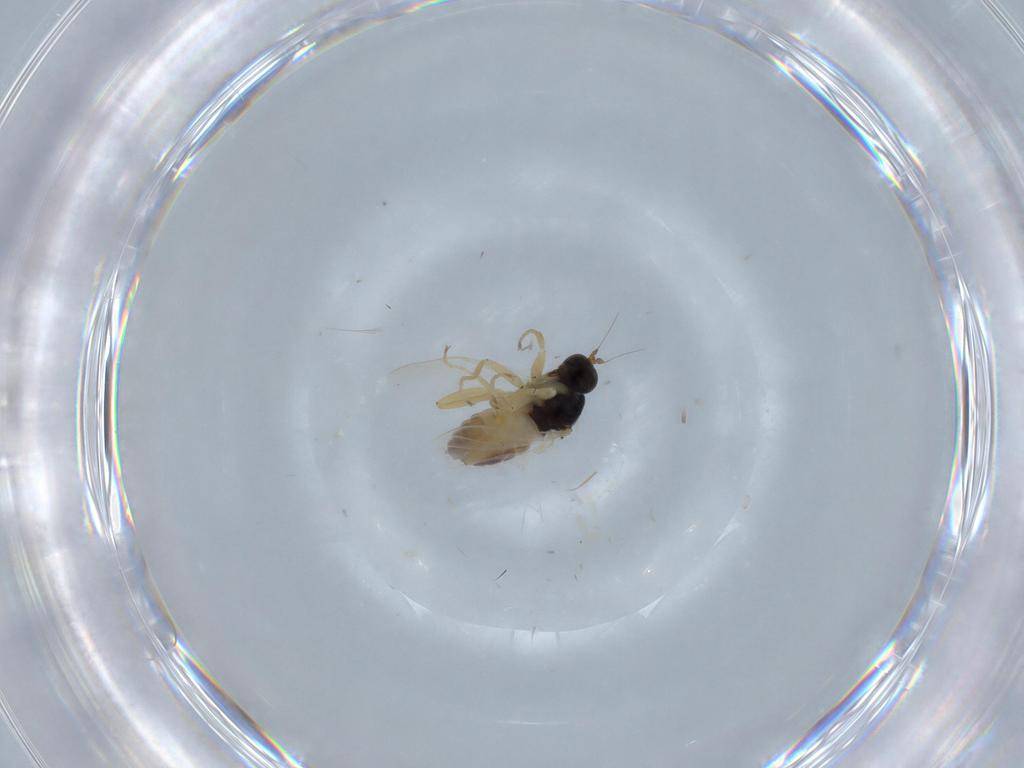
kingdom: Animalia
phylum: Arthropoda
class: Insecta
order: Diptera
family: Hybotidae
